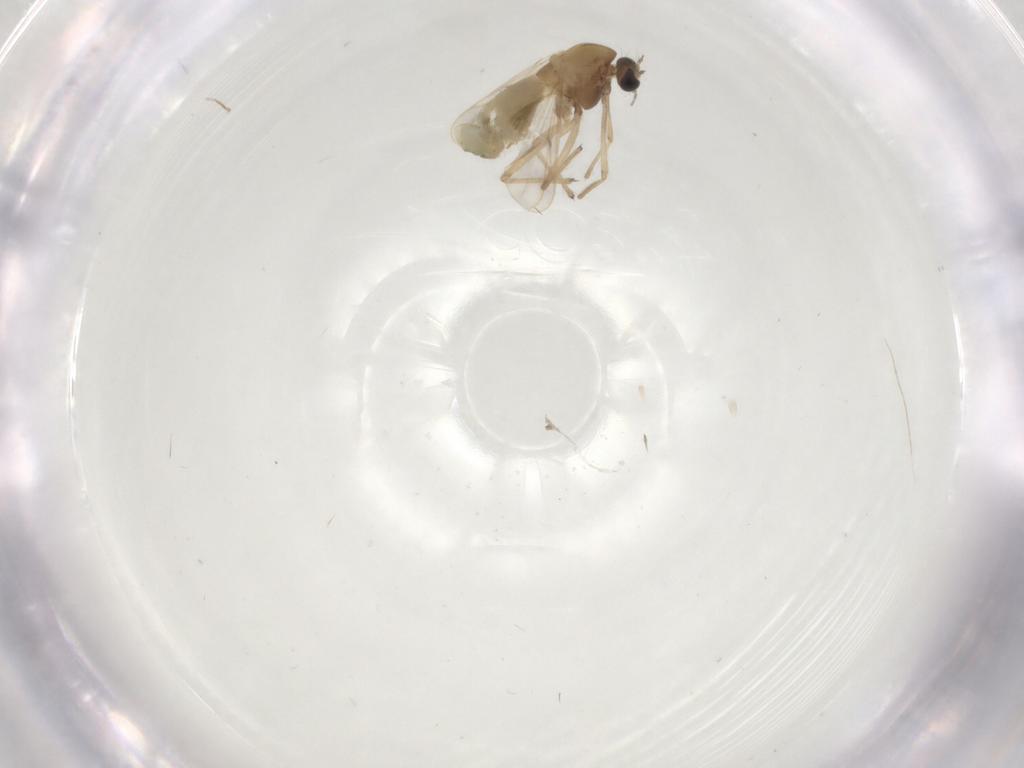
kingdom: Animalia
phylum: Arthropoda
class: Insecta
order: Diptera
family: Chironomidae
